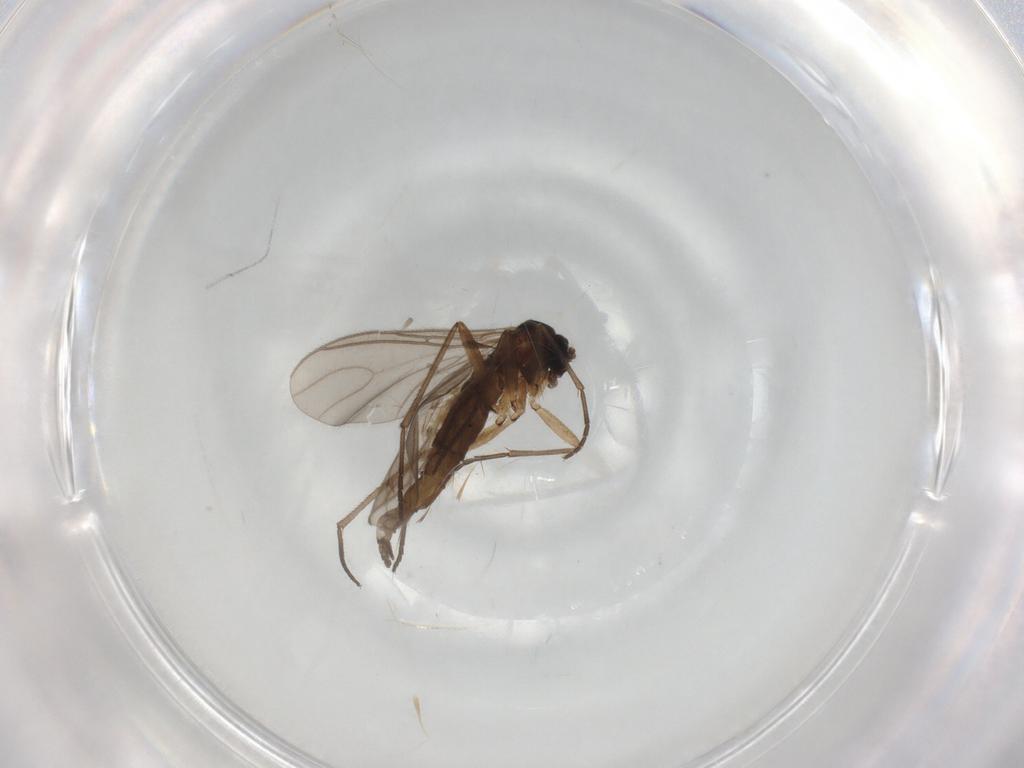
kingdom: Animalia
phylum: Arthropoda
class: Insecta
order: Diptera
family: Sciaridae
